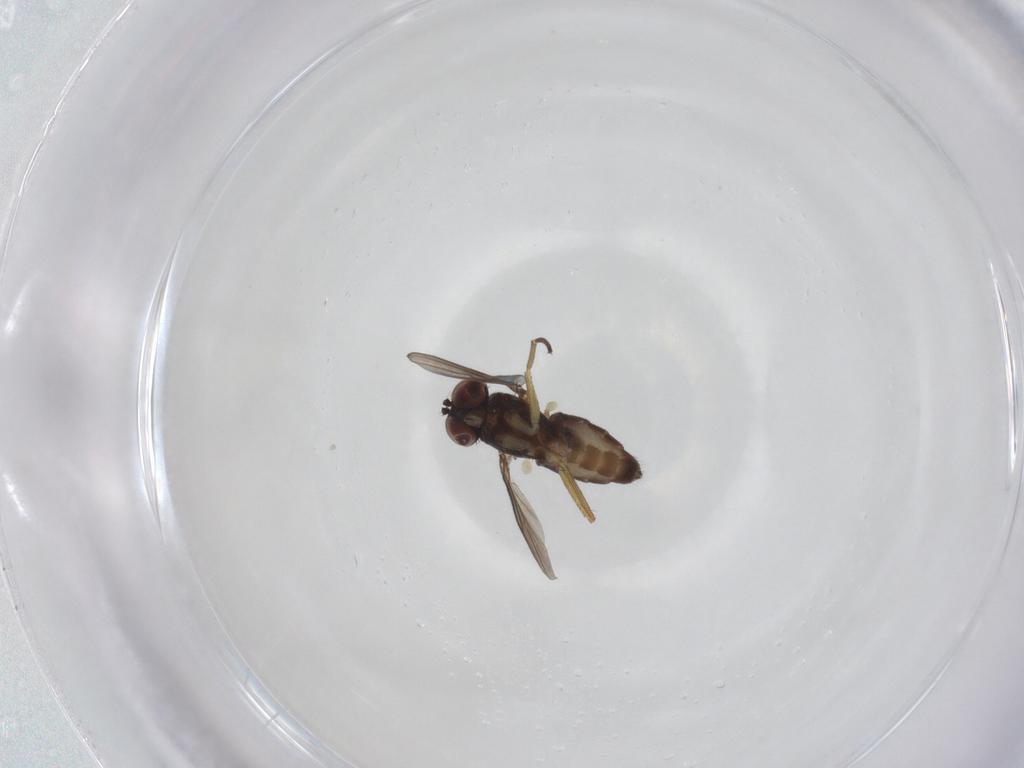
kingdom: Animalia
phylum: Arthropoda
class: Insecta
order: Diptera
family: Dolichopodidae
